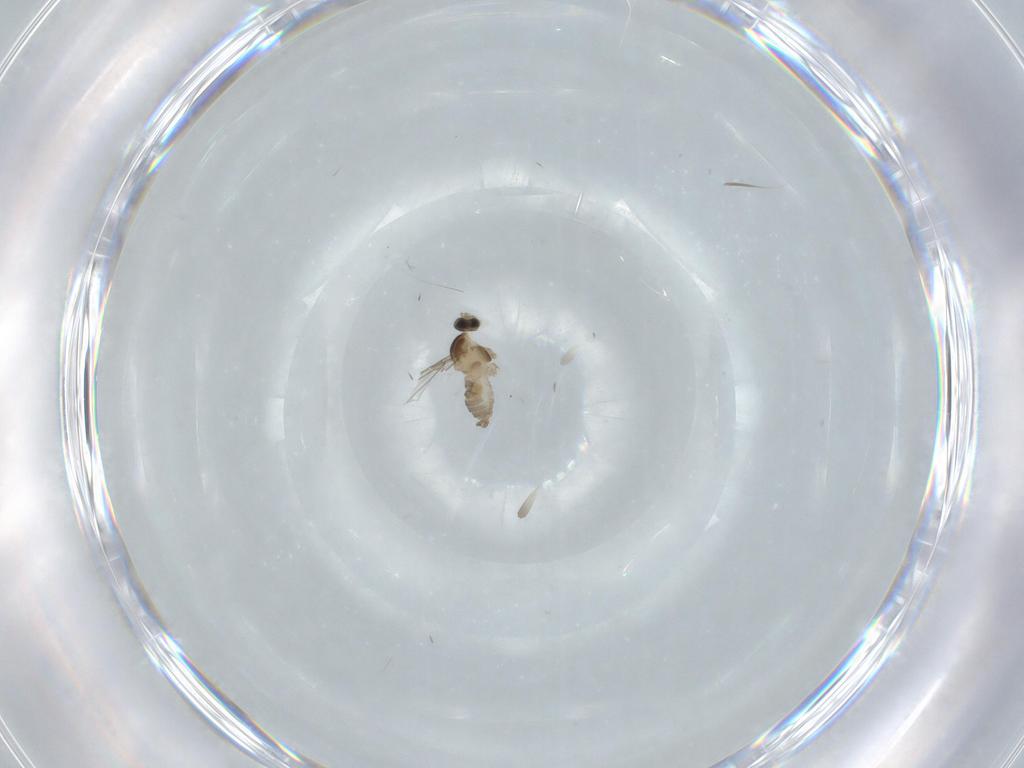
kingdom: Animalia
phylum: Arthropoda
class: Insecta
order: Diptera
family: Cecidomyiidae
